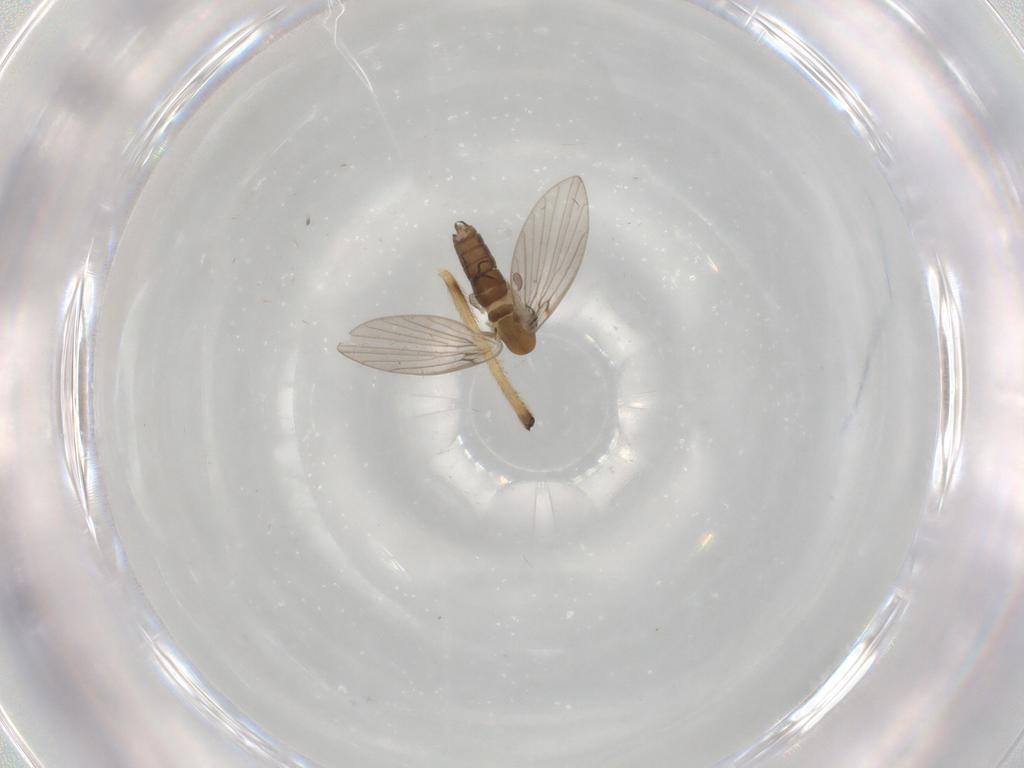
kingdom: Animalia
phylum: Arthropoda
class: Insecta
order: Diptera
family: Chironomidae
